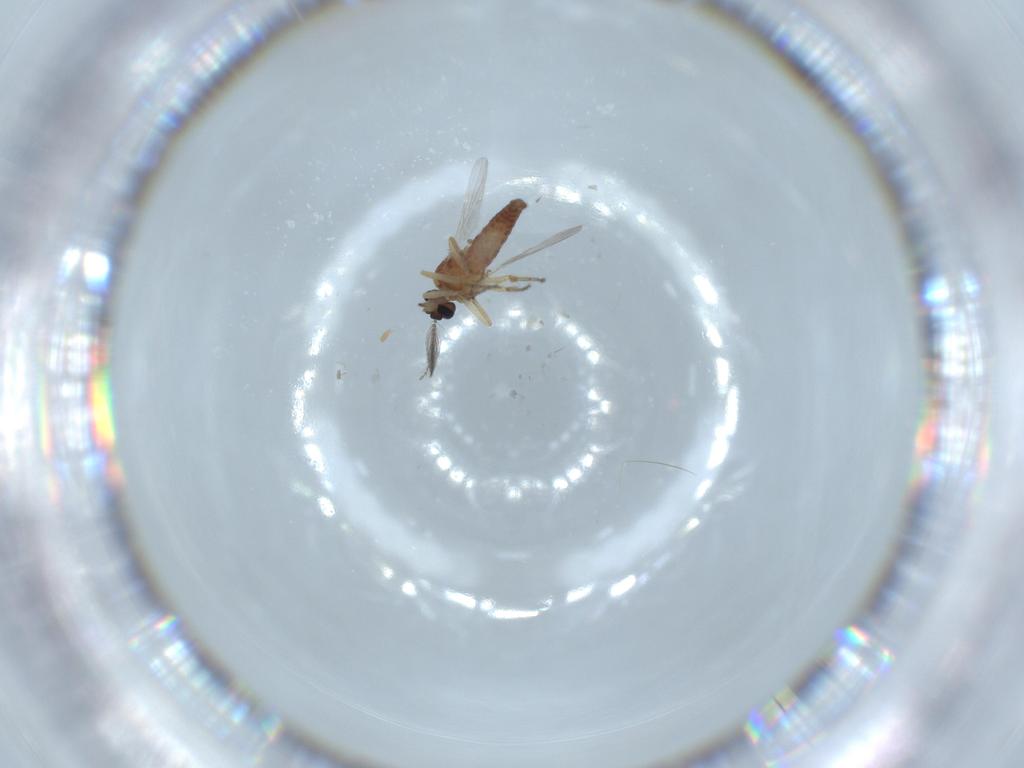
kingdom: Animalia
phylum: Arthropoda
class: Insecta
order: Diptera
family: Ceratopogonidae
